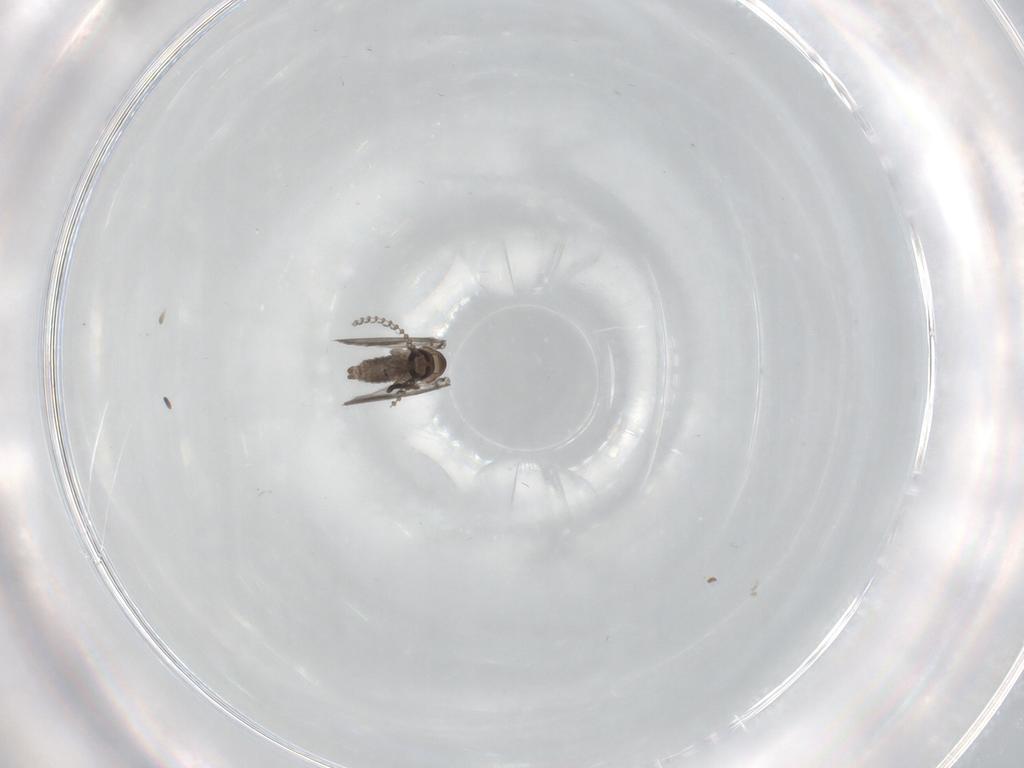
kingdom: Animalia
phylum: Arthropoda
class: Insecta
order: Diptera
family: Psychodidae
